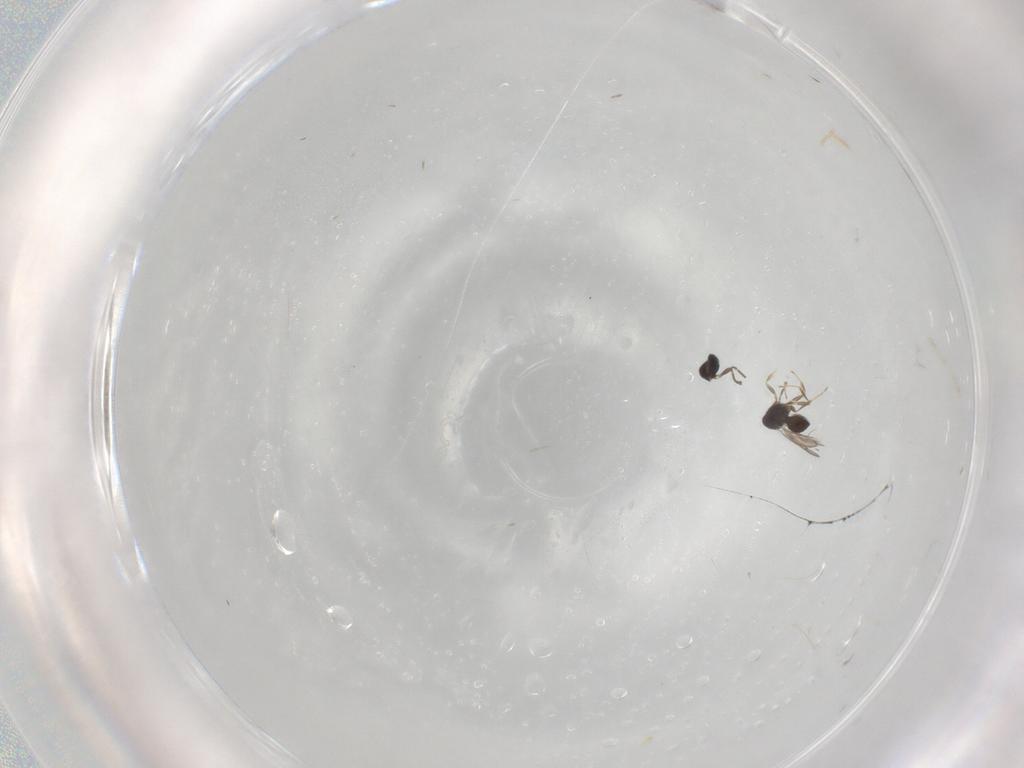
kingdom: Animalia
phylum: Arthropoda
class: Insecta
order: Hymenoptera
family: Scelionidae
